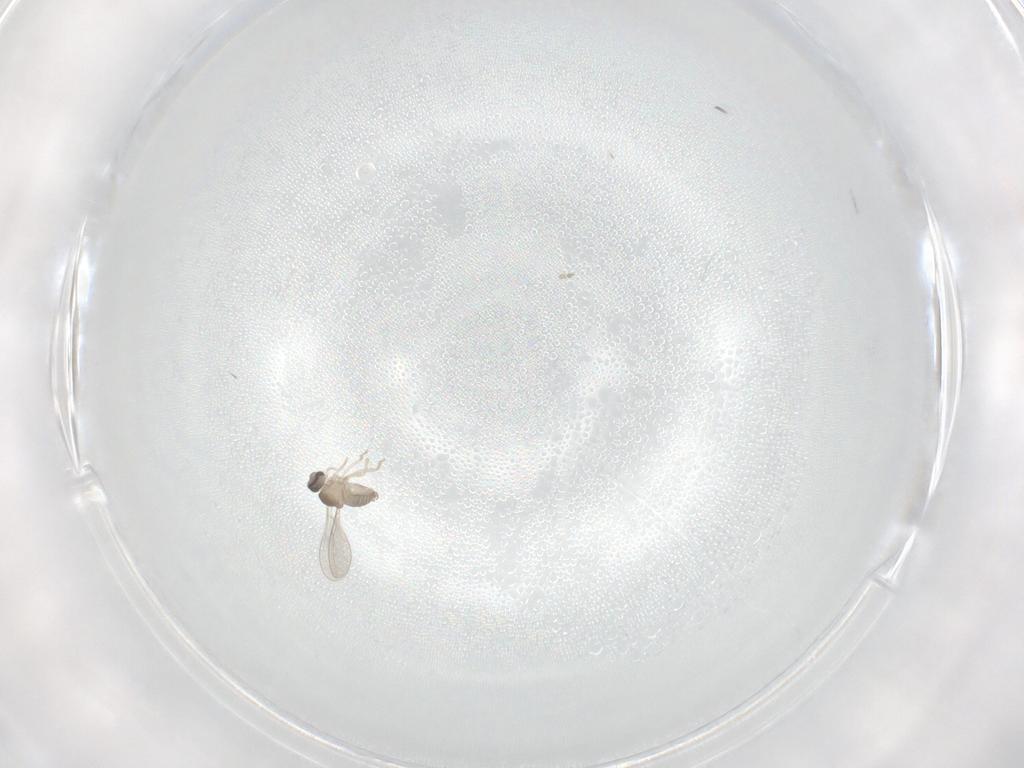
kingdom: Animalia
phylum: Arthropoda
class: Insecta
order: Diptera
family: Cecidomyiidae
